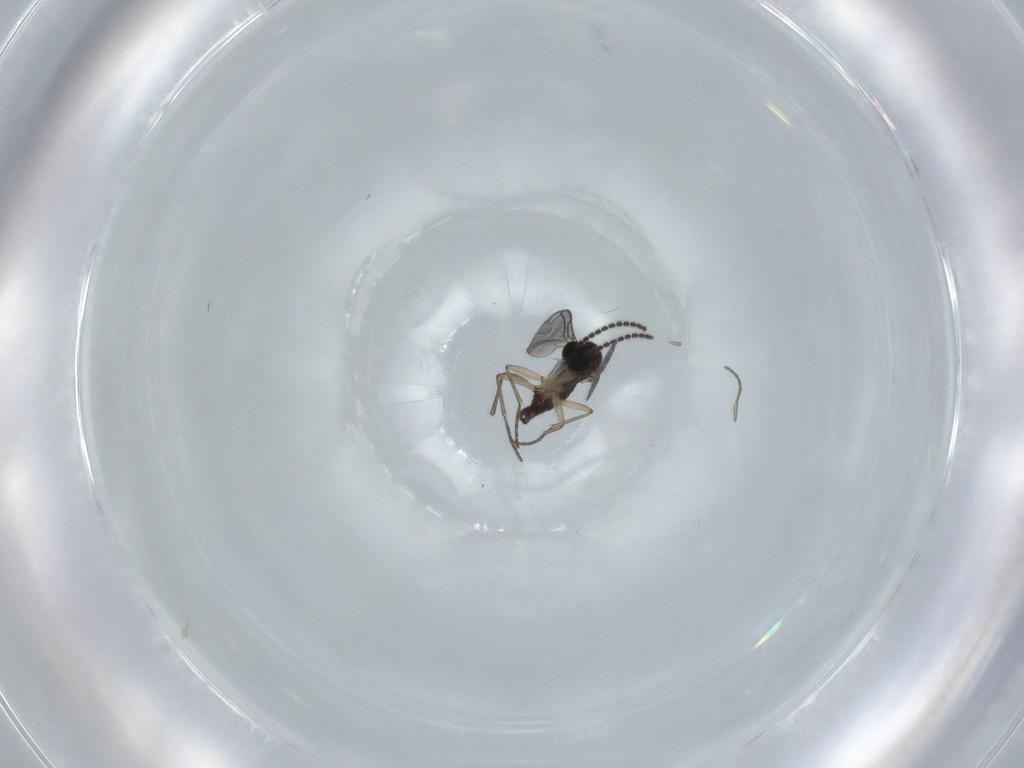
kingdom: Animalia
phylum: Arthropoda
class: Insecta
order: Diptera
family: Sciaridae
